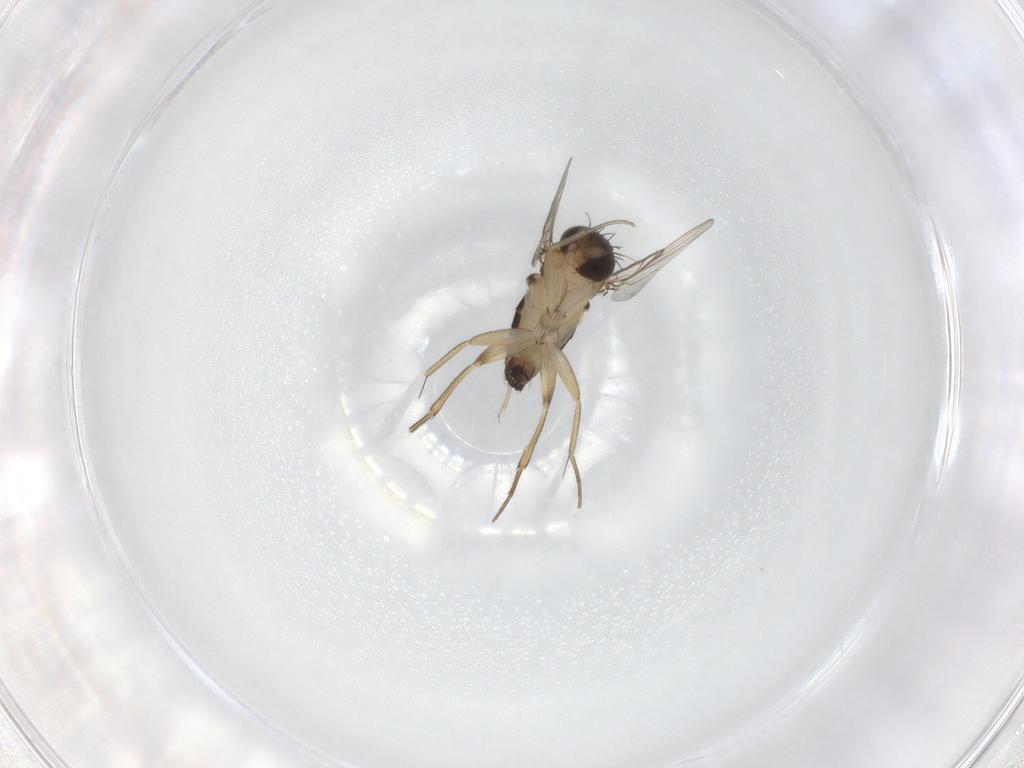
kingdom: Animalia
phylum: Arthropoda
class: Insecta
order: Diptera
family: Phoridae
